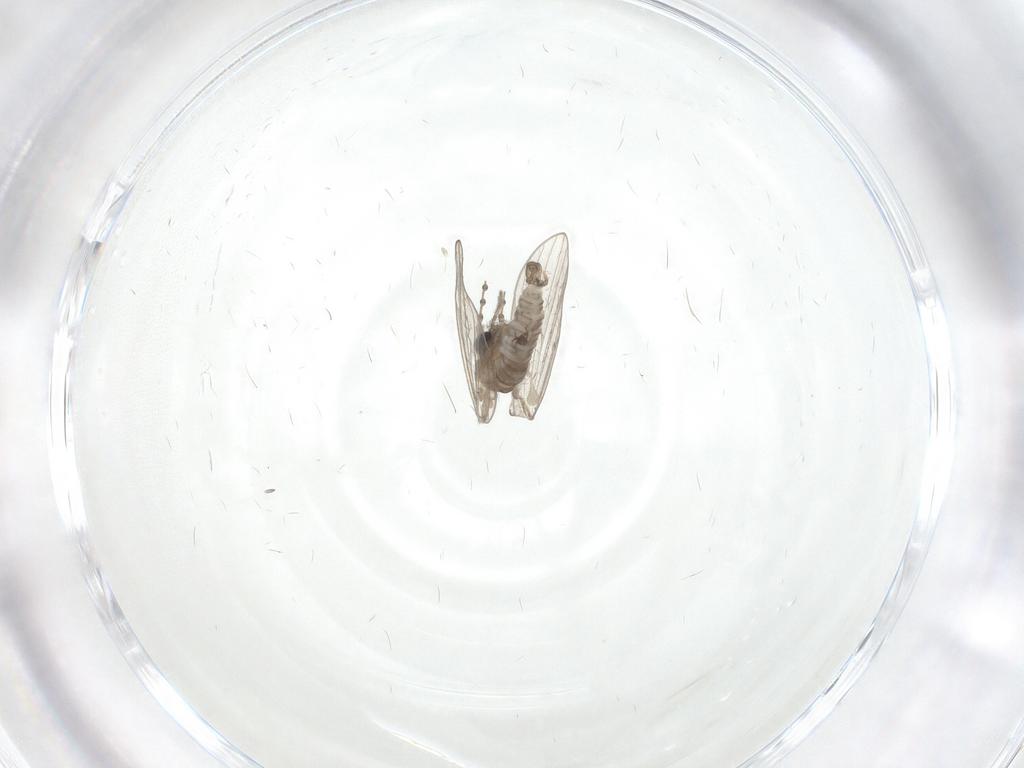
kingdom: Animalia
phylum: Arthropoda
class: Insecta
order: Diptera
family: Psychodidae
